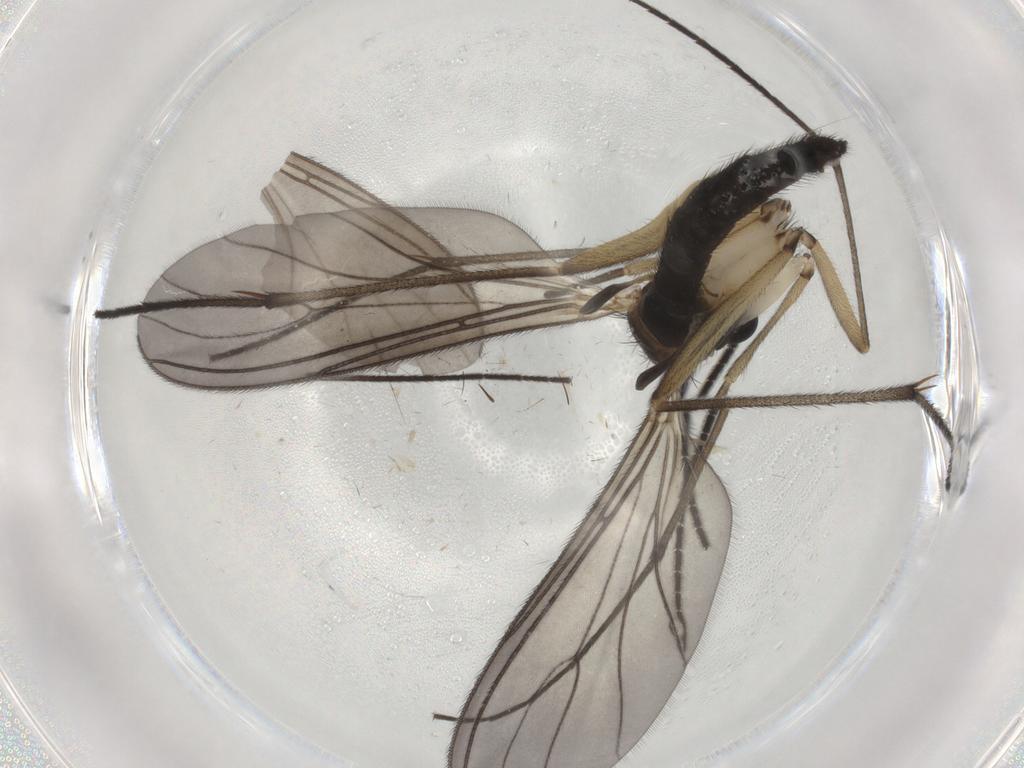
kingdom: Animalia
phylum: Arthropoda
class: Insecta
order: Diptera
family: Sciaridae
